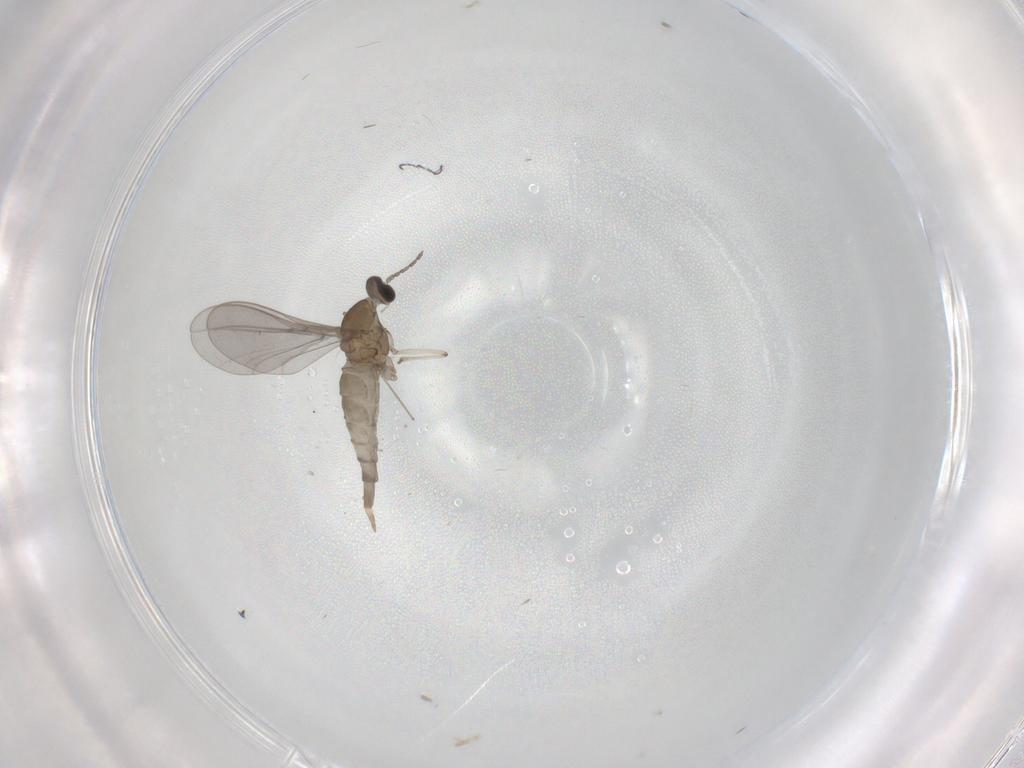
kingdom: Animalia
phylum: Arthropoda
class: Insecta
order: Diptera
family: Cecidomyiidae
